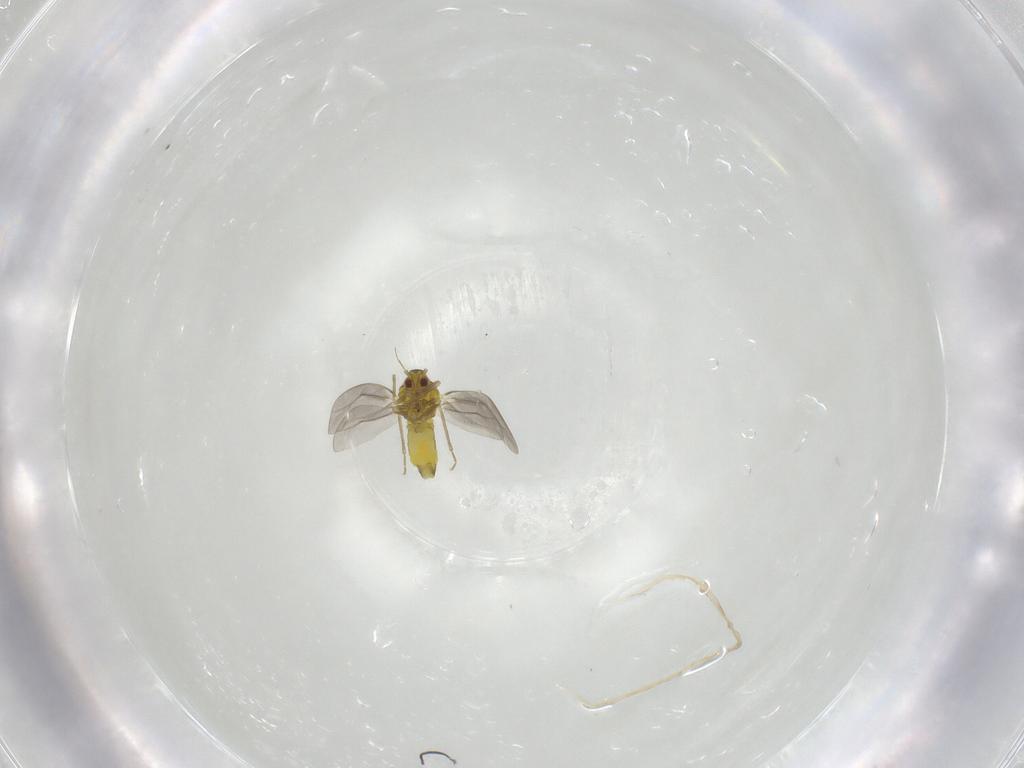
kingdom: Animalia
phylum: Arthropoda
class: Insecta
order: Hemiptera
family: Aleyrodidae
